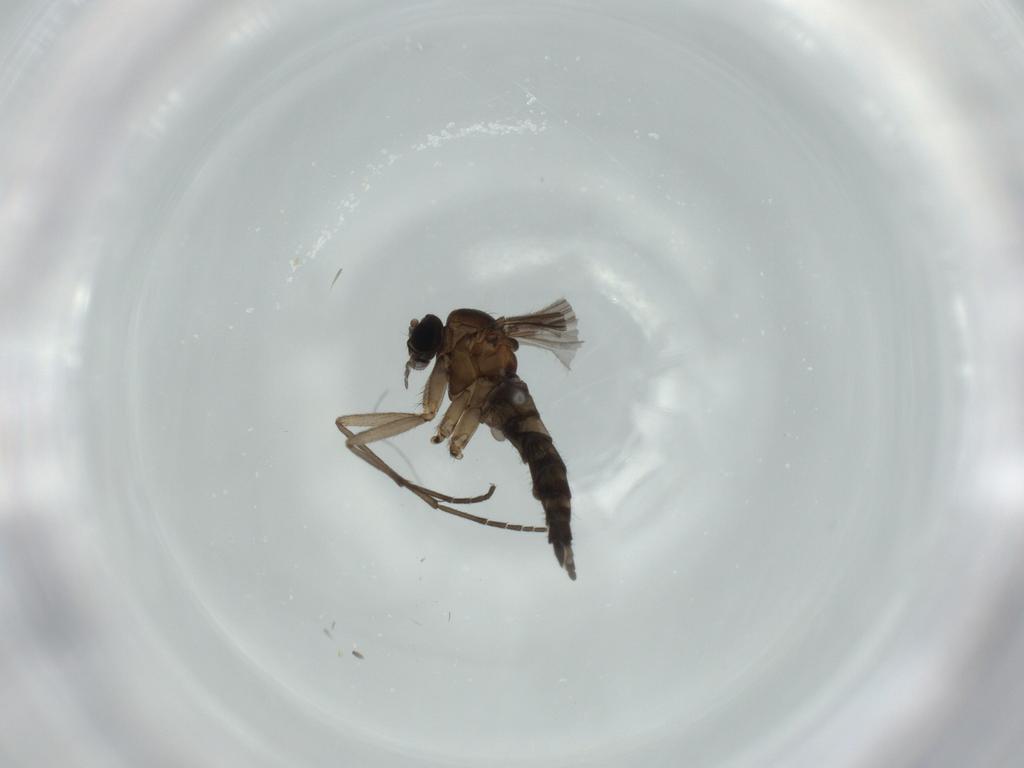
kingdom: Animalia
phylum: Arthropoda
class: Insecta
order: Diptera
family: Sciaridae
